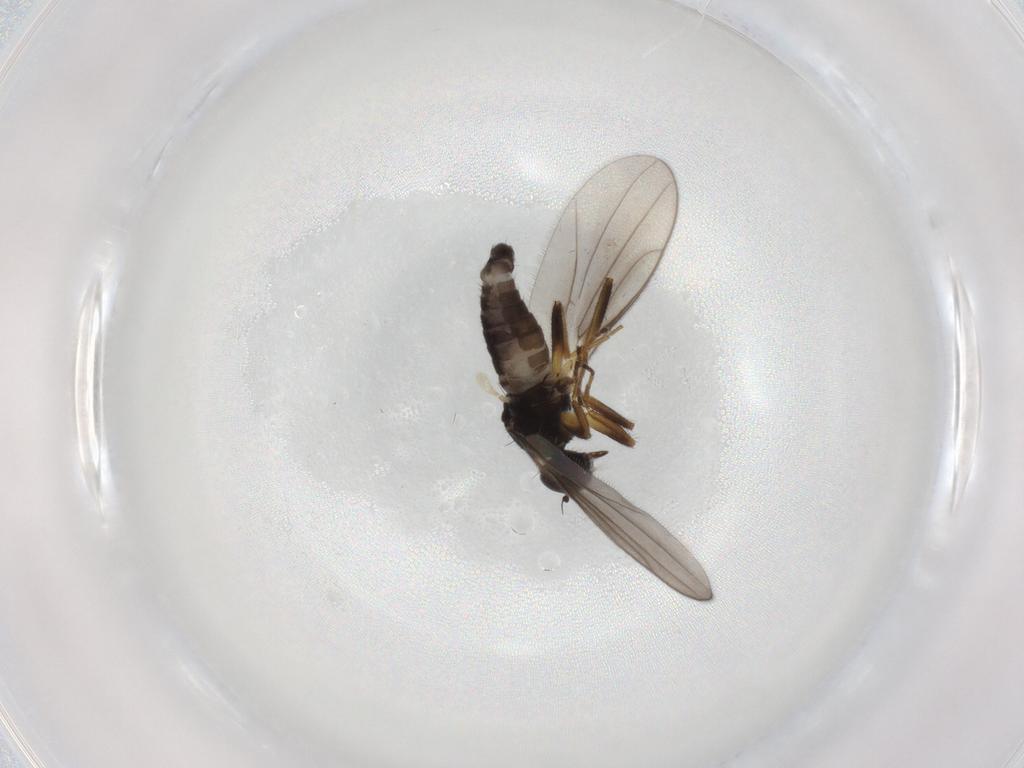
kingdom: Animalia
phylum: Arthropoda
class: Insecta
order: Diptera
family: Hybotidae
